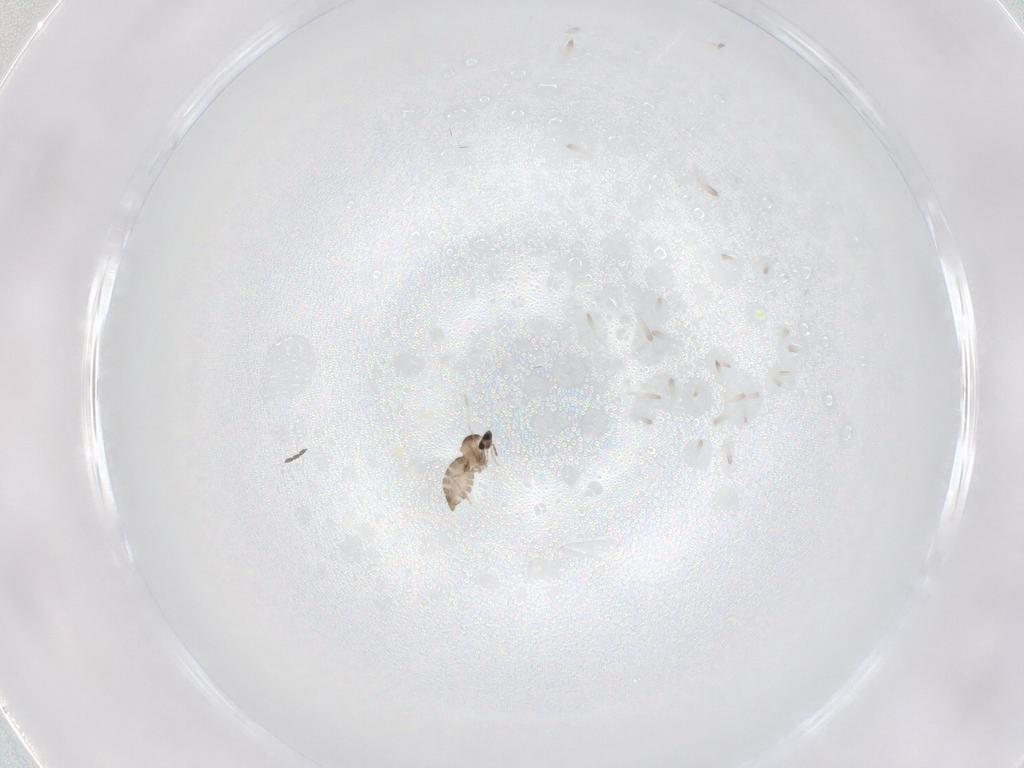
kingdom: Animalia
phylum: Arthropoda
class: Insecta
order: Diptera
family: Cecidomyiidae
